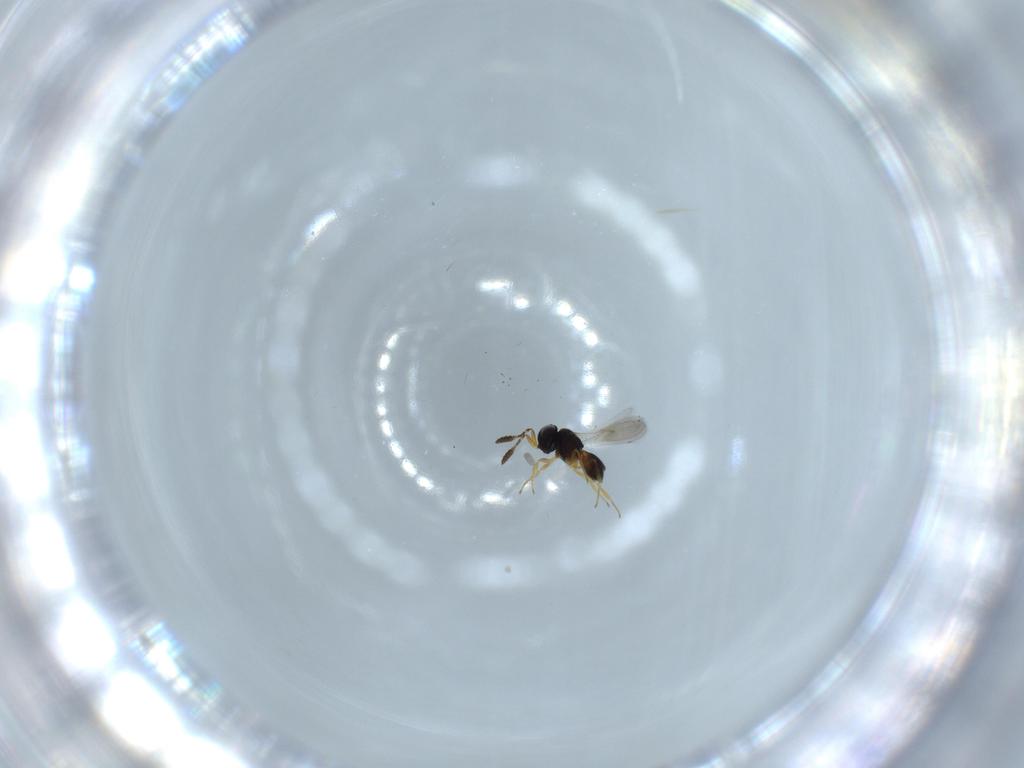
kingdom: Animalia
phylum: Arthropoda
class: Insecta
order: Hymenoptera
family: Scelionidae
